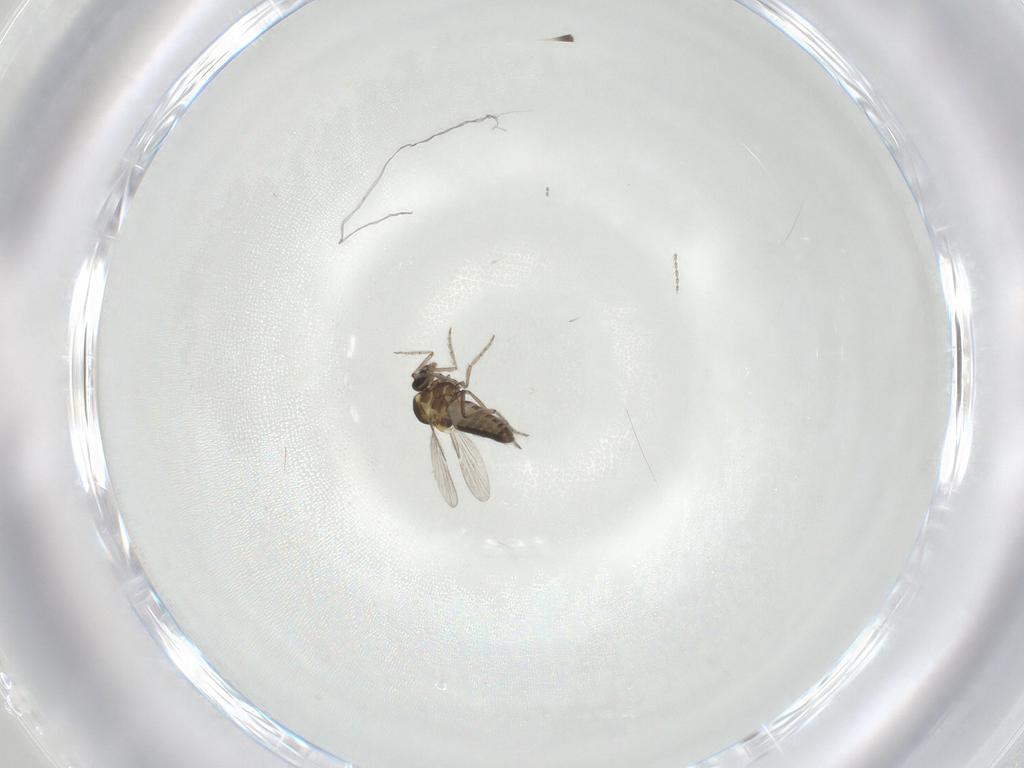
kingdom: Animalia
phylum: Arthropoda
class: Insecta
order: Diptera
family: Ceratopogonidae
